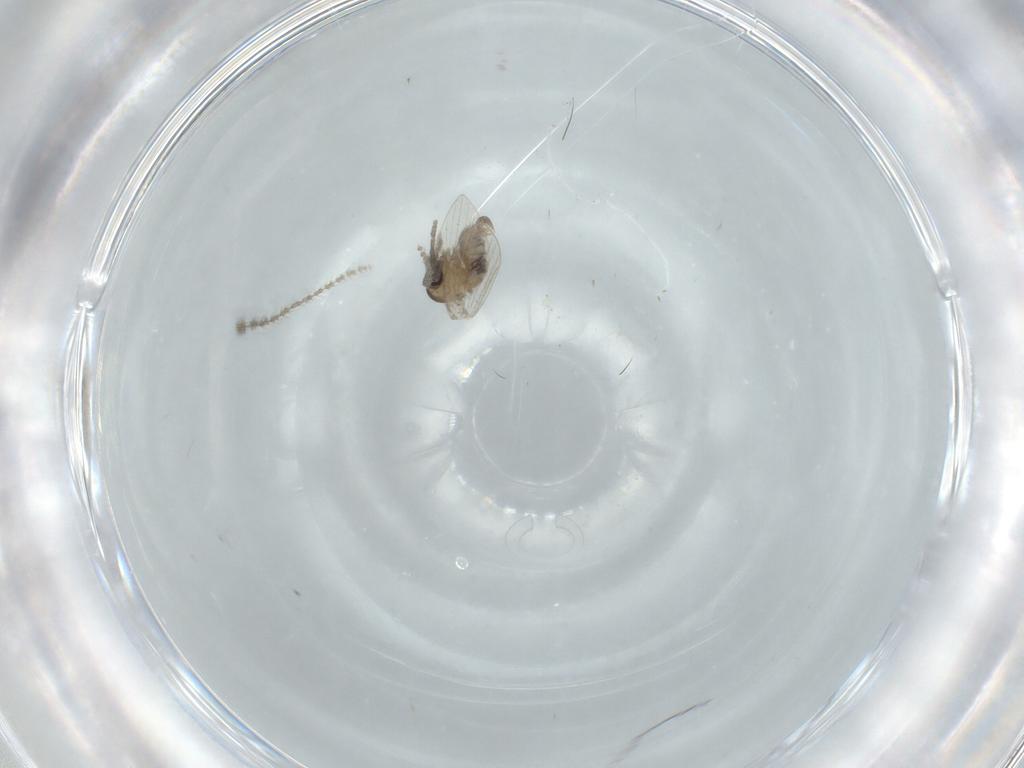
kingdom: Animalia
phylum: Arthropoda
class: Insecta
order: Diptera
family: Psychodidae
